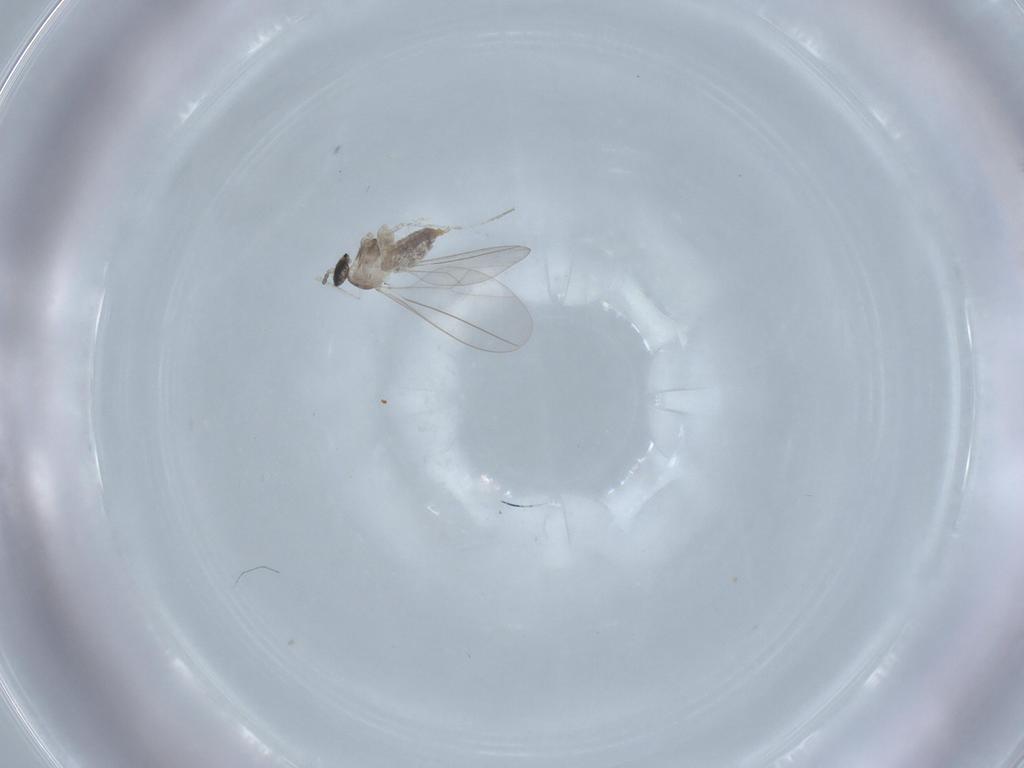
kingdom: Animalia
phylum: Arthropoda
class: Insecta
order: Diptera
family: Cecidomyiidae
